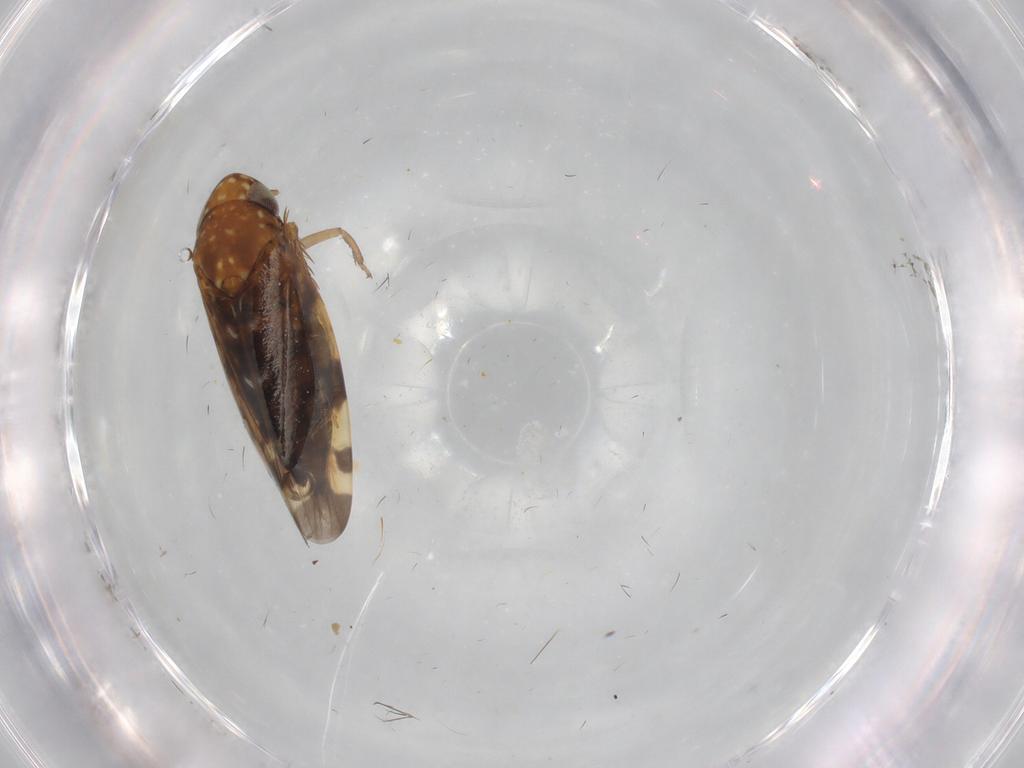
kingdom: Animalia
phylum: Arthropoda
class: Insecta
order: Hemiptera
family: Cicadellidae
